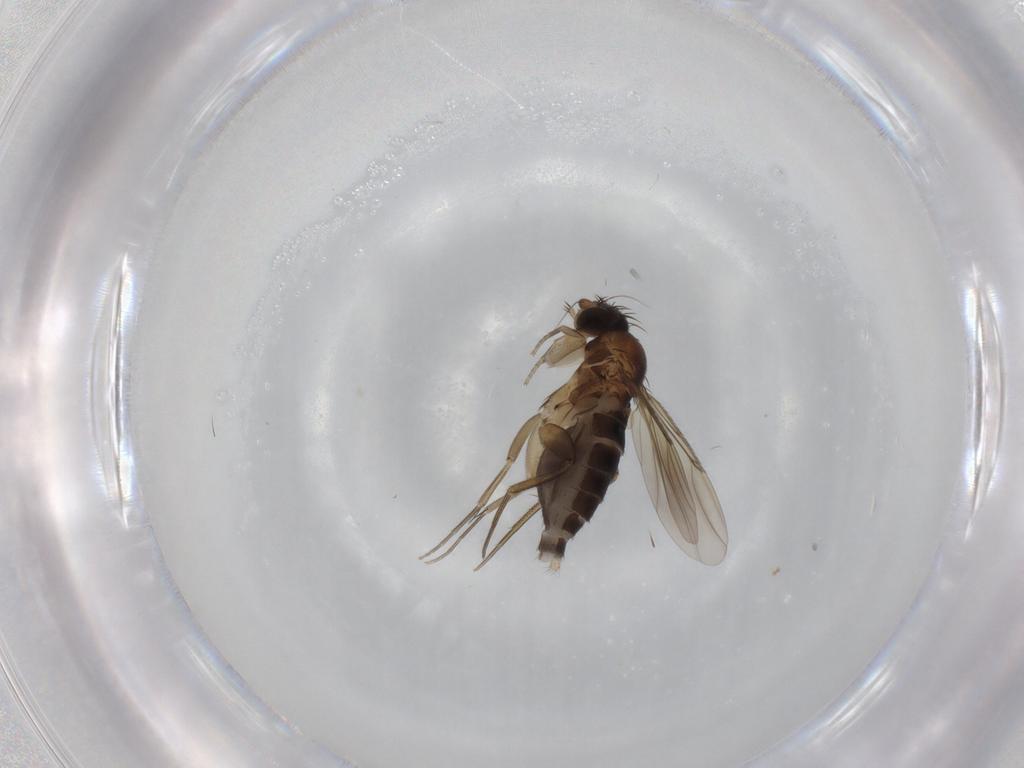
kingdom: Animalia
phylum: Arthropoda
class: Insecta
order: Diptera
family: Phoridae
